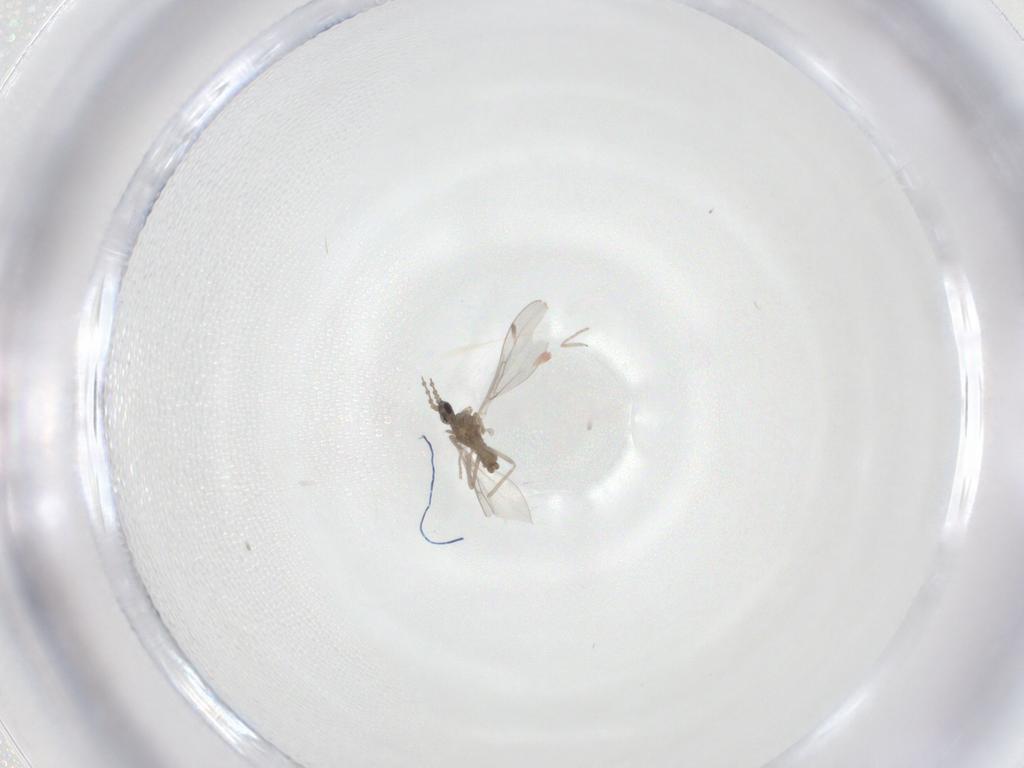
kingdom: Animalia
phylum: Arthropoda
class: Insecta
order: Diptera
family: Cecidomyiidae
